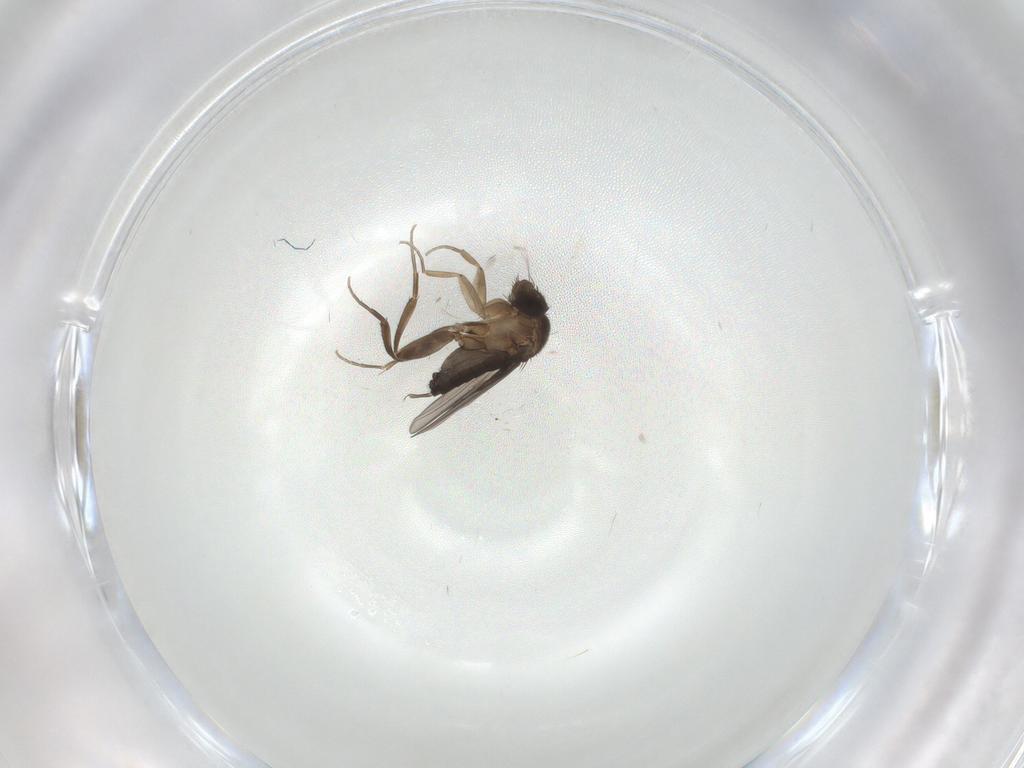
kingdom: Animalia
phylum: Arthropoda
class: Insecta
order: Diptera
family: Phoridae
